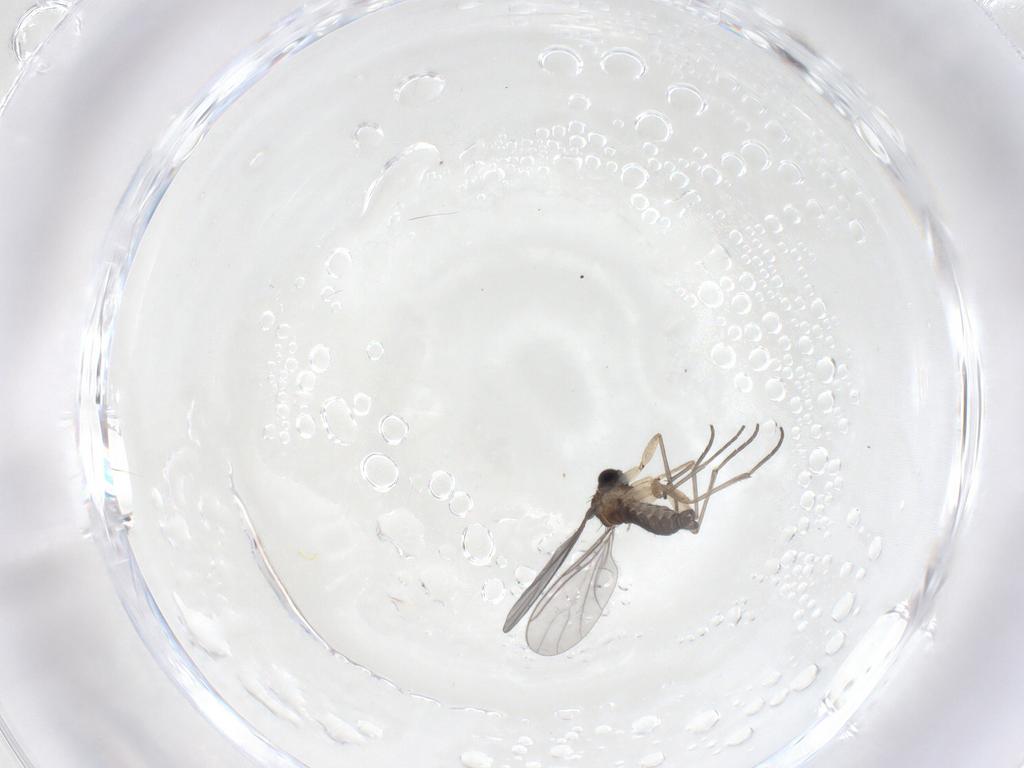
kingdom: Animalia
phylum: Arthropoda
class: Insecta
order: Diptera
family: Sciaridae
